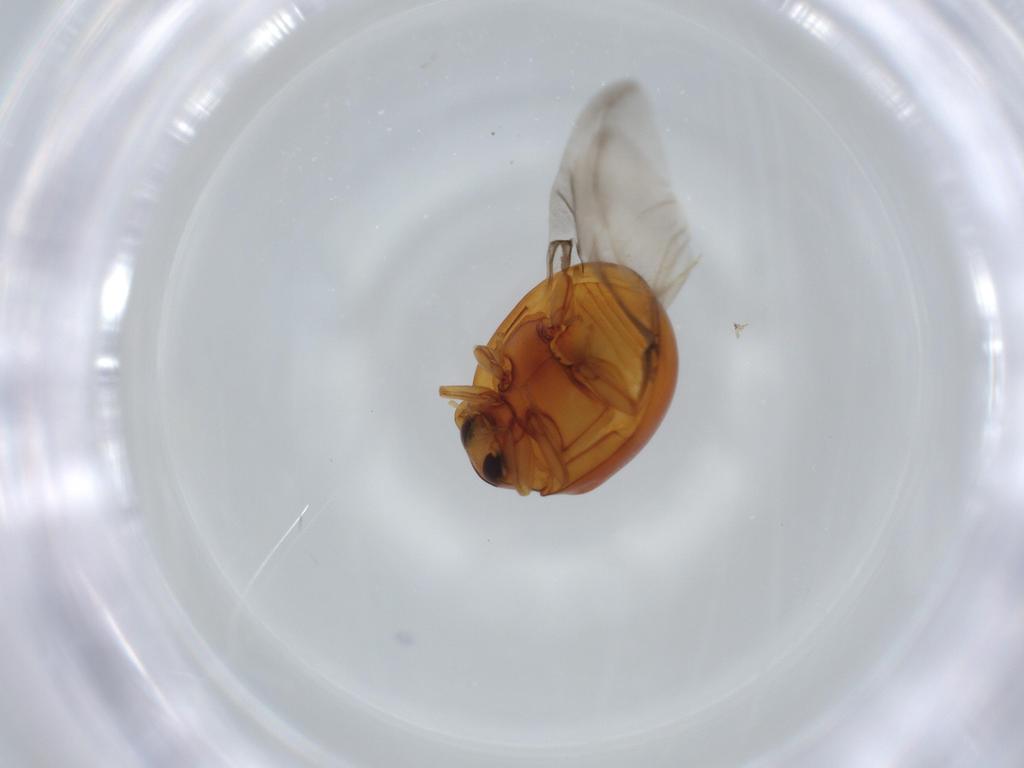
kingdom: Animalia
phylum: Arthropoda
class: Insecta
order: Coleoptera
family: Coccinellidae
